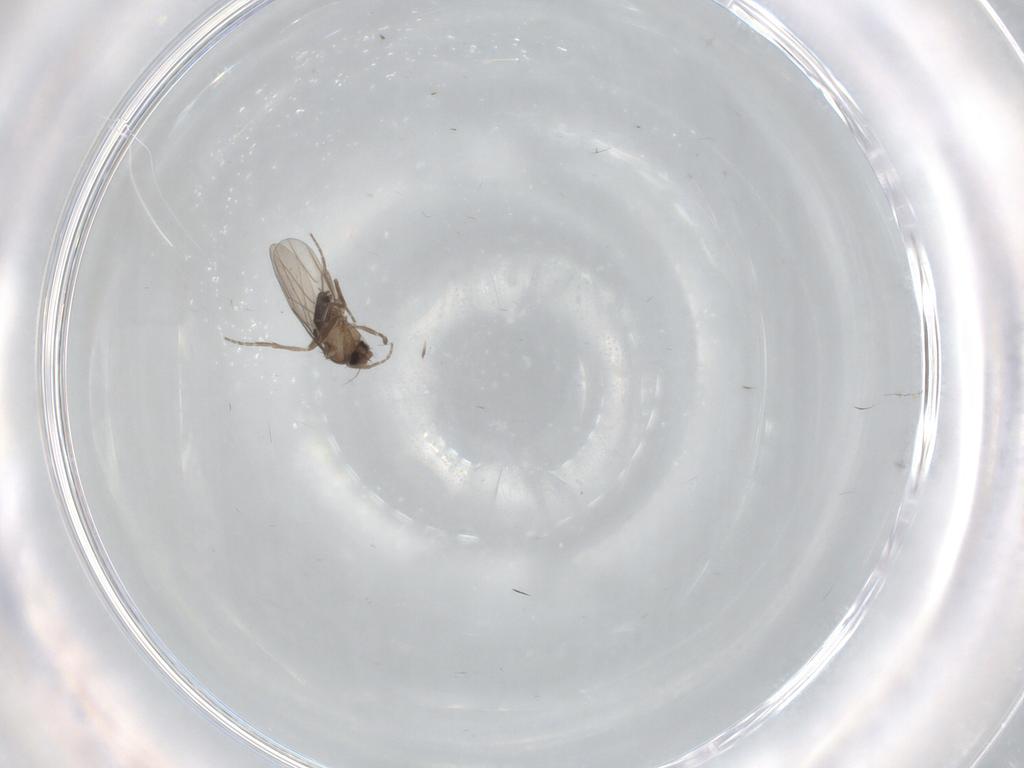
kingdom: Animalia
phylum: Arthropoda
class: Insecta
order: Diptera
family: Phoridae
